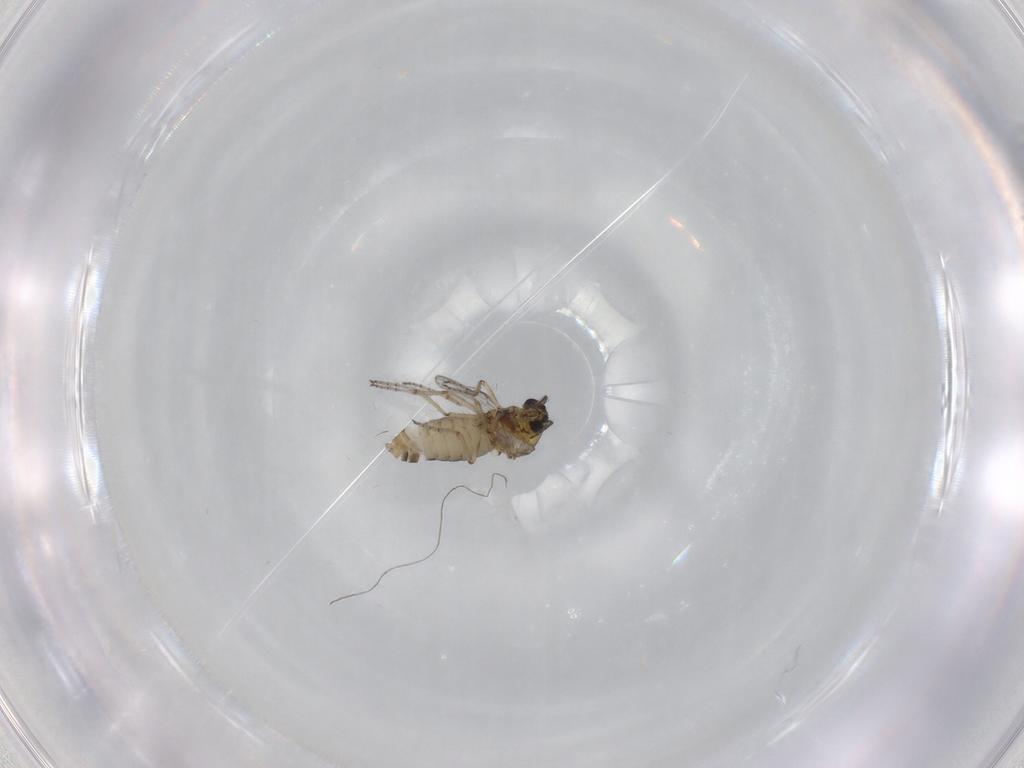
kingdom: Animalia
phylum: Arthropoda
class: Insecta
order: Diptera
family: Ceratopogonidae
